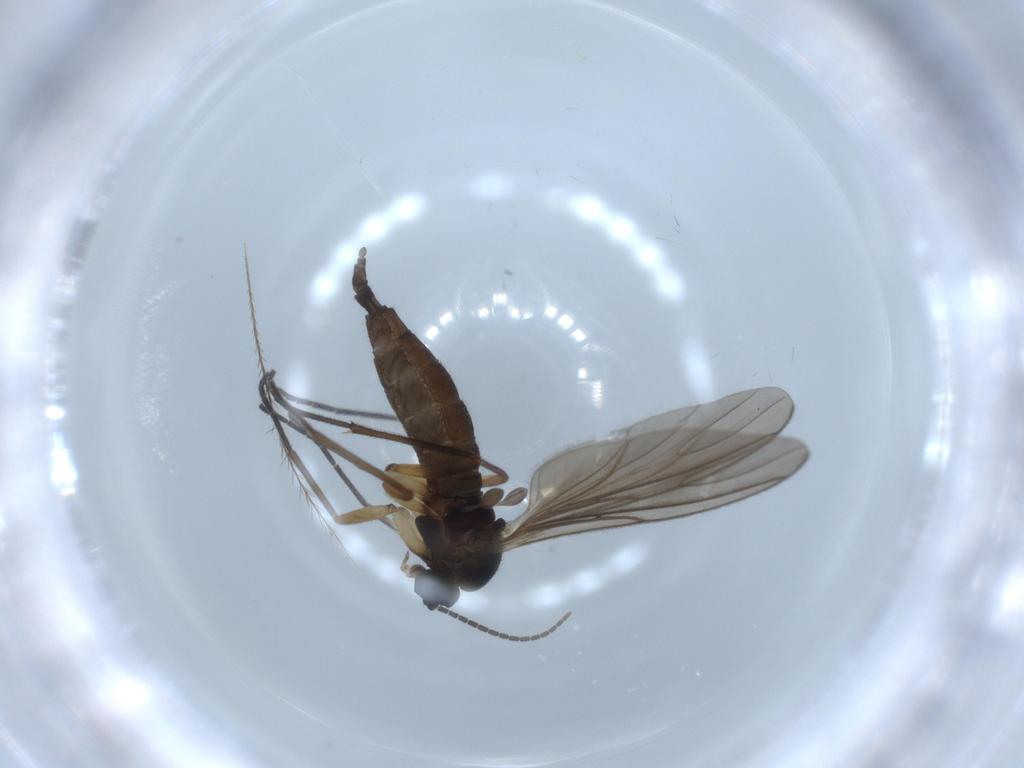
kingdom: Animalia
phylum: Arthropoda
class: Insecta
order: Diptera
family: Sciaridae
